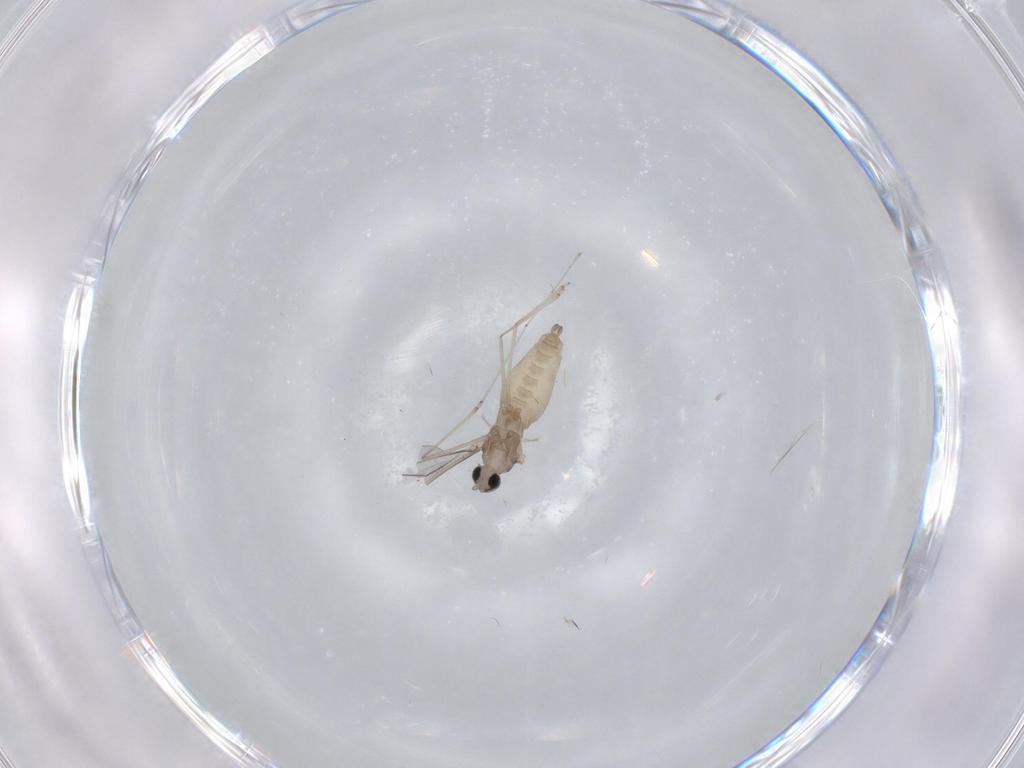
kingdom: Animalia
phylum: Arthropoda
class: Insecta
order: Diptera
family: Cecidomyiidae
